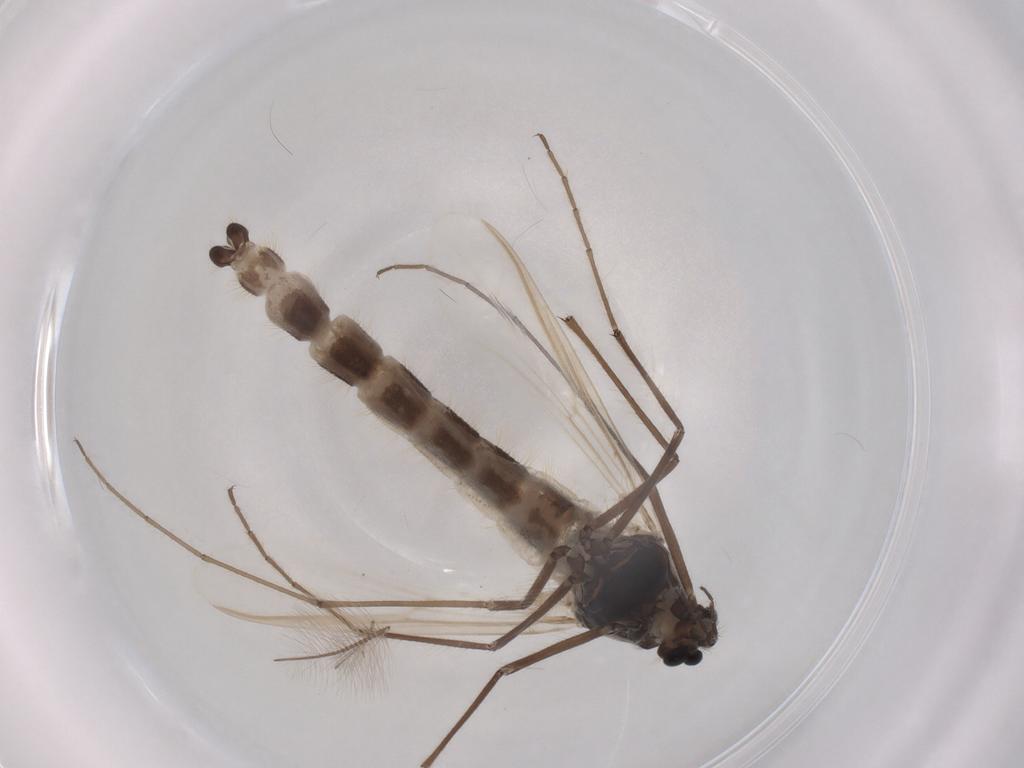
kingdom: Animalia
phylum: Arthropoda
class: Insecta
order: Diptera
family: Chironomidae
